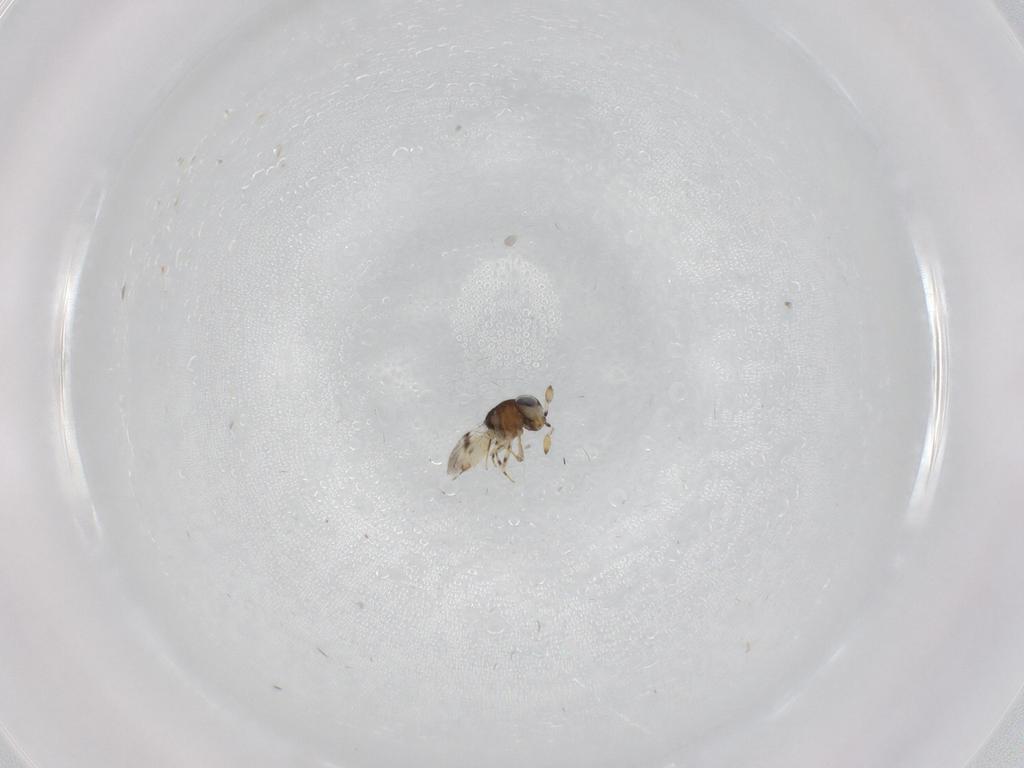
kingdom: Animalia
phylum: Arthropoda
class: Insecta
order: Hymenoptera
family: Scelionidae
